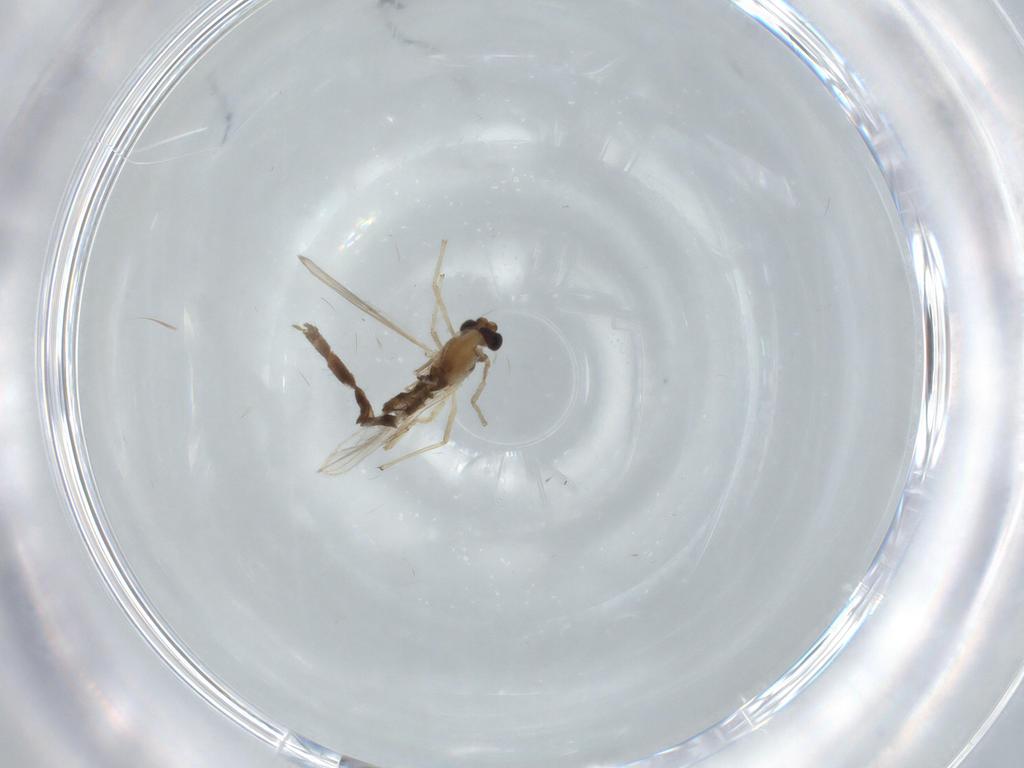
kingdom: Animalia
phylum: Arthropoda
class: Insecta
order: Diptera
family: Chironomidae
